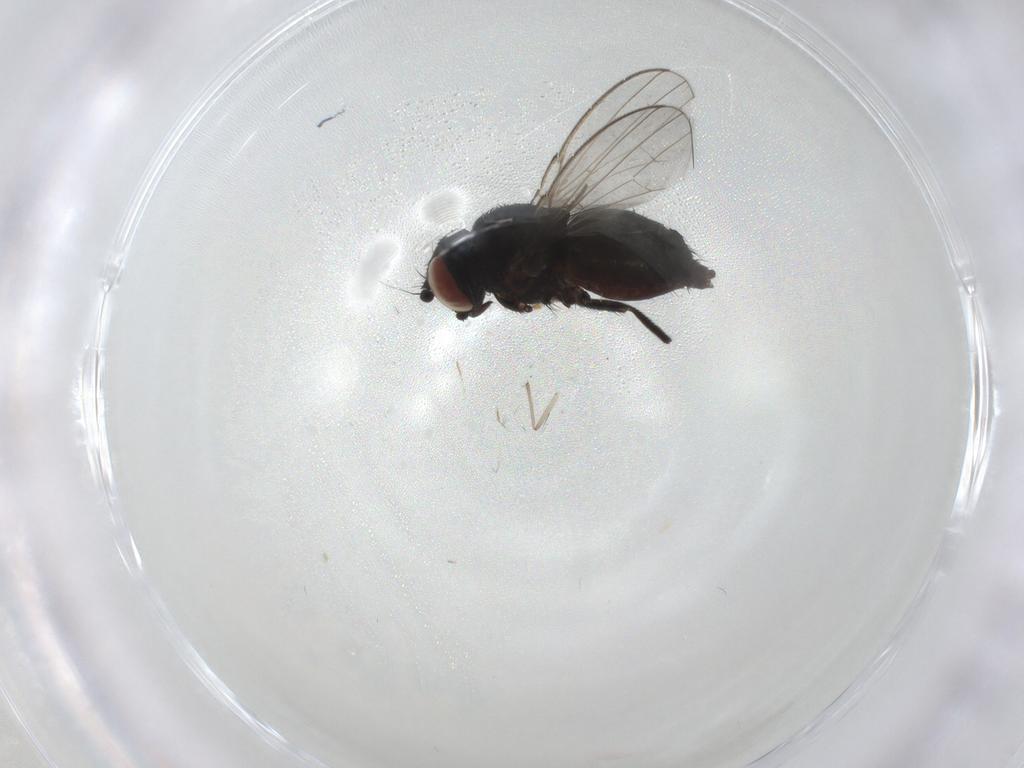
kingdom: Animalia
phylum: Arthropoda
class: Insecta
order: Diptera
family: Milichiidae
